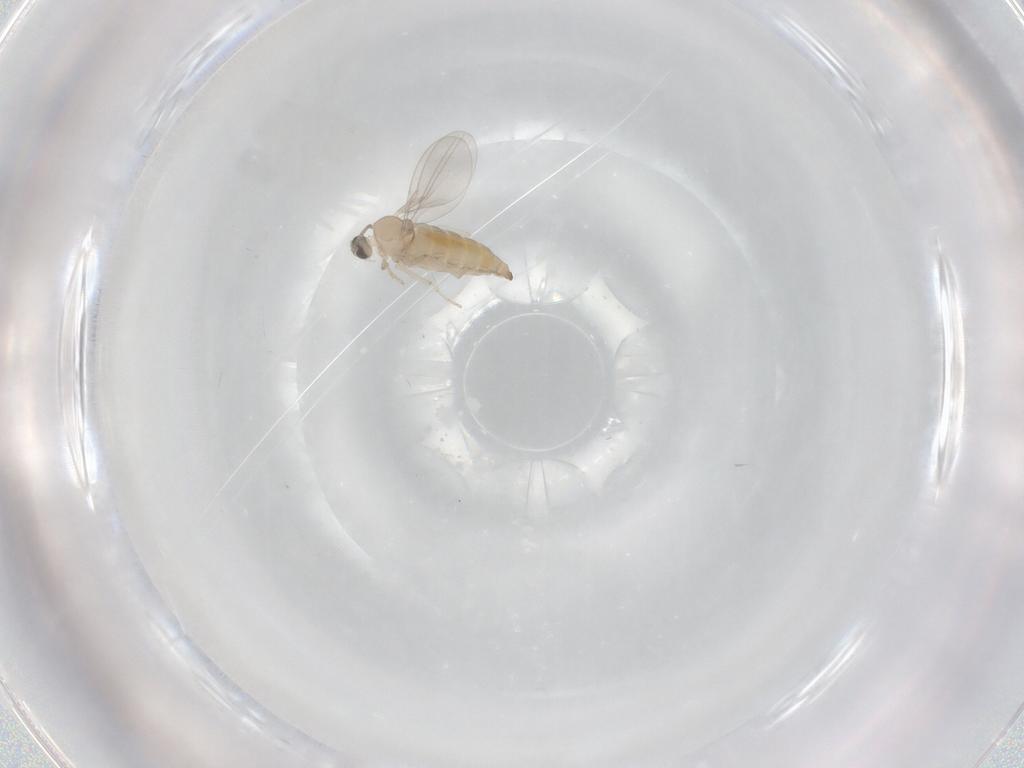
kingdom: Animalia
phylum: Arthropoda
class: Insecta
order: Diptera
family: Cecidomyiidae
